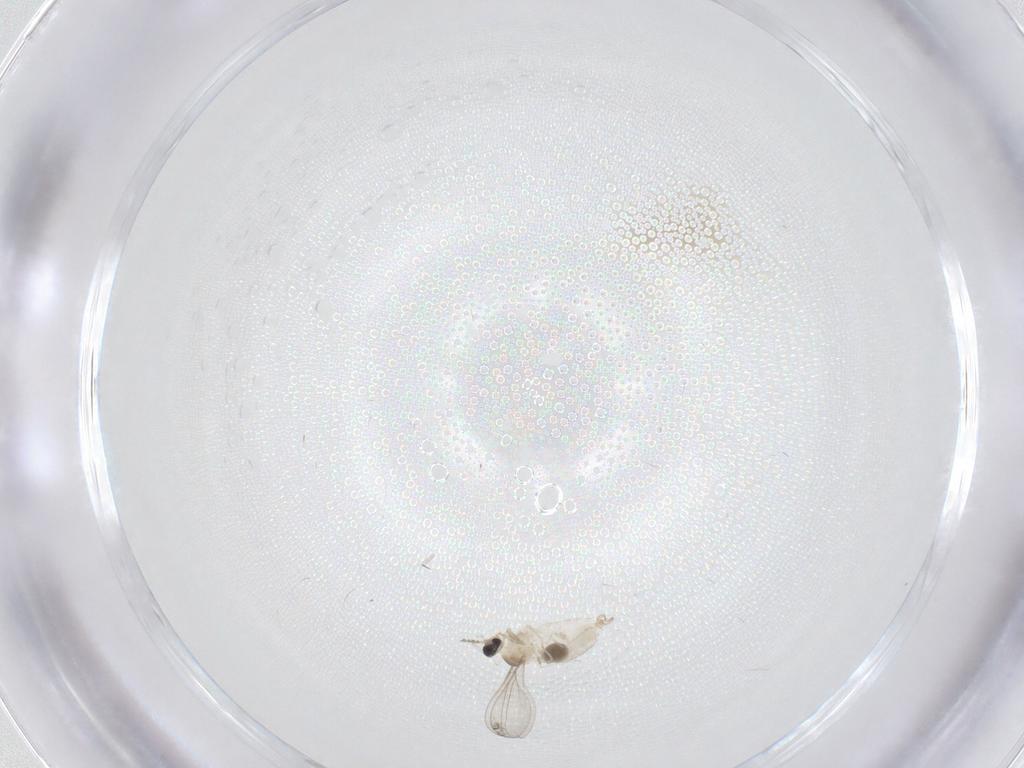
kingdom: Animalia
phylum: Arthropoda
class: Insecta
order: Diptera
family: Cecidomyiidae
